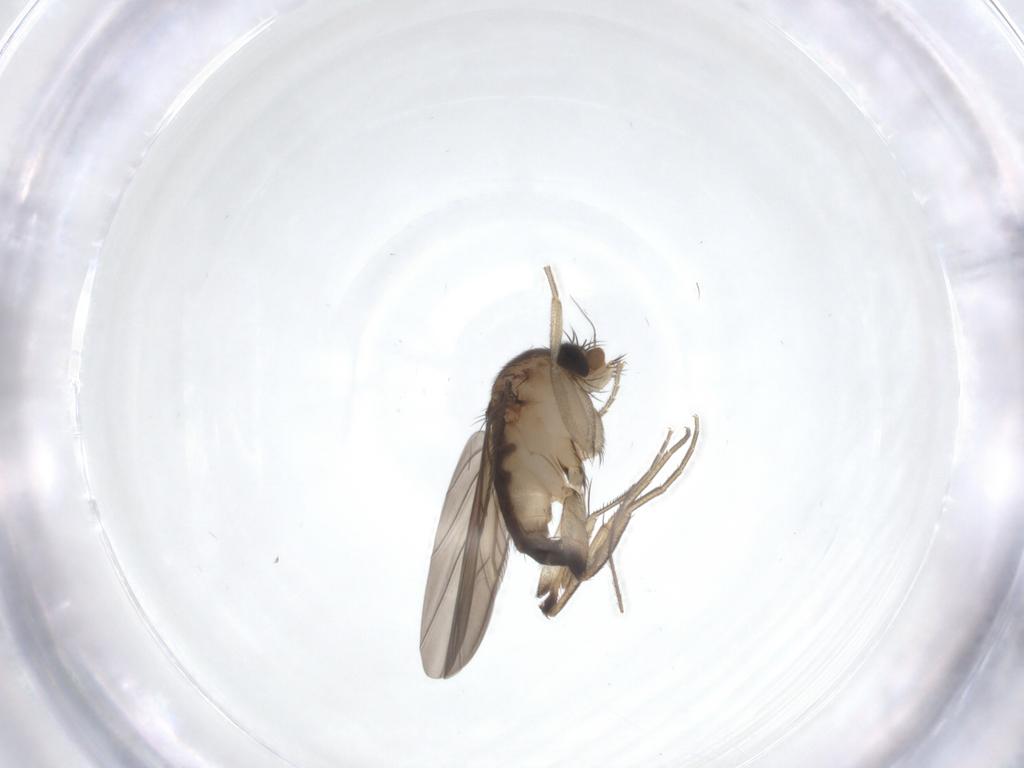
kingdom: Animalia
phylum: Arthropoda
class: Insecta
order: Diptera
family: Phoridae
